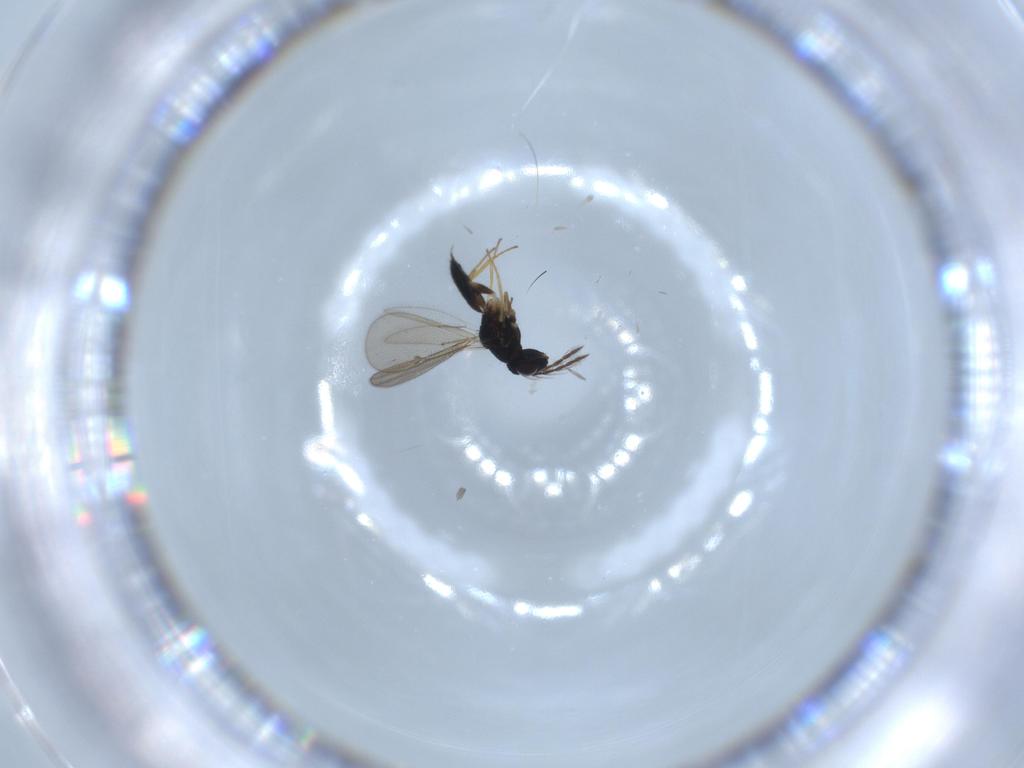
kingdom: Animalia
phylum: Arthropoda
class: Insecta
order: Hymenoptera
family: Eulophidae
